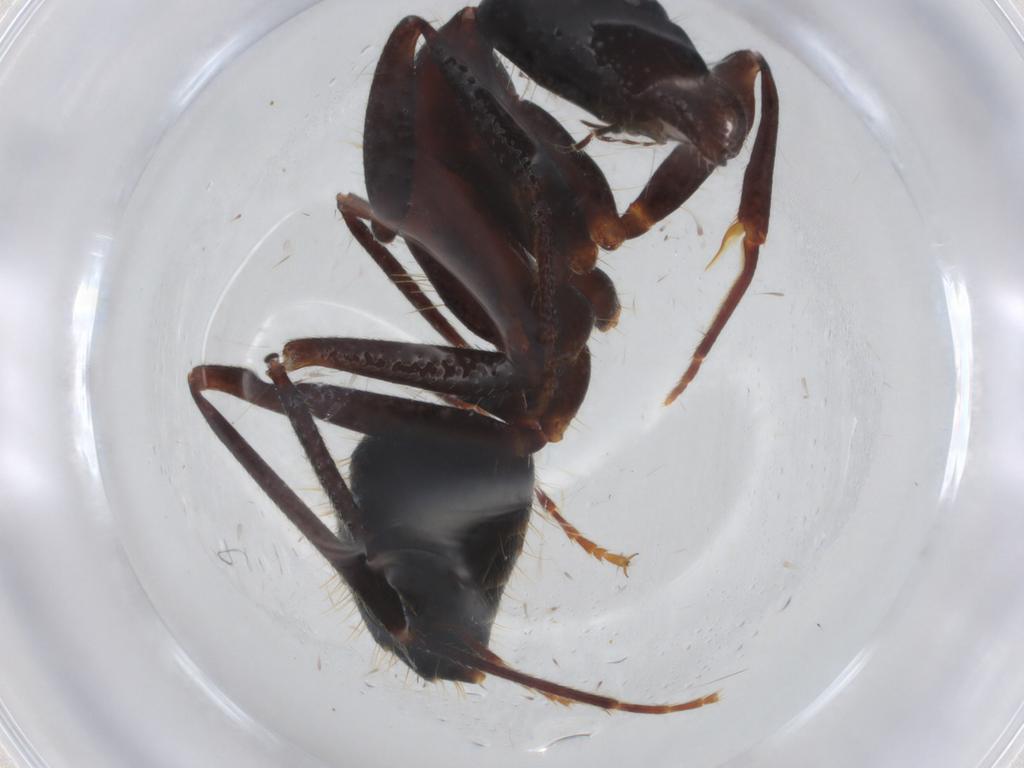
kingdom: Animalia
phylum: Arthropoda
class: Insecta
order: Hymenoptera
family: Formicidae
